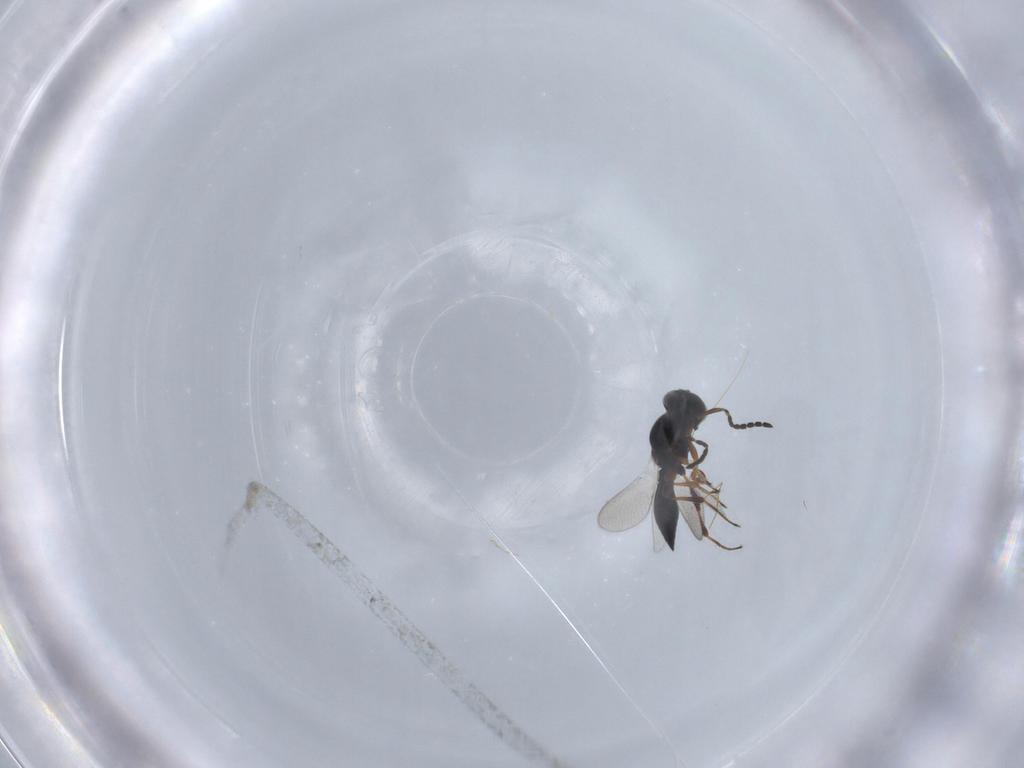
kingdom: Animalia
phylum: Arthropoda
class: Insecta
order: Hymenoptera
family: Platygastridae
